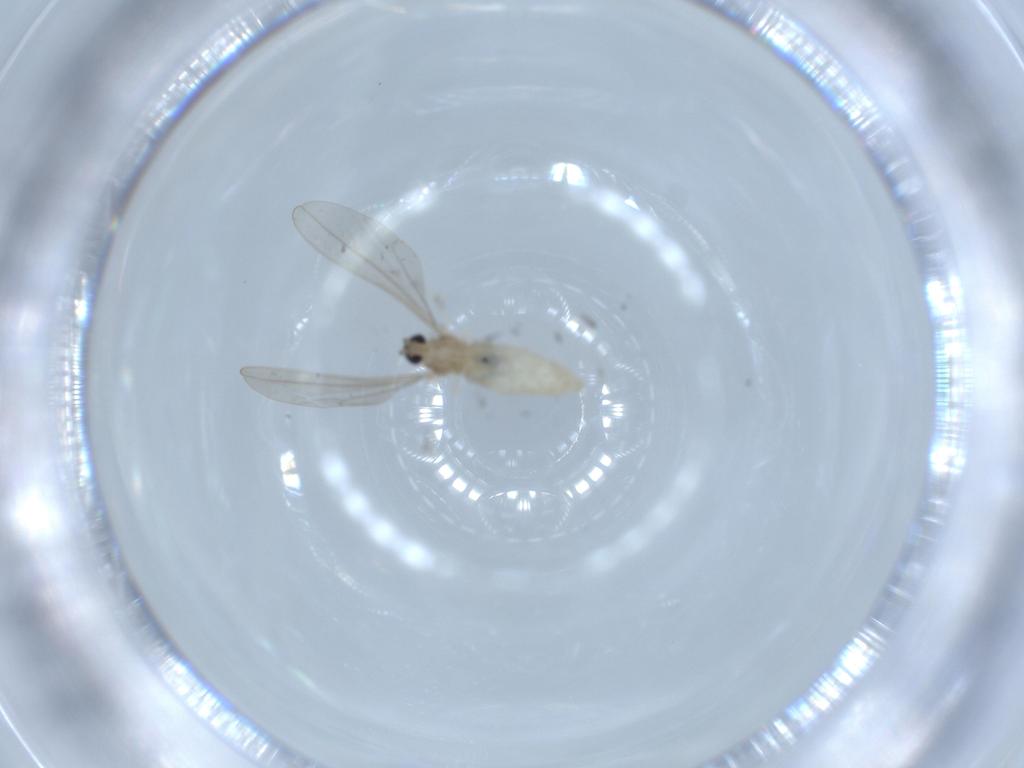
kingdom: Animalia
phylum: Arthropoda
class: Insecta
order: Diptera
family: Cecidomyiidae
